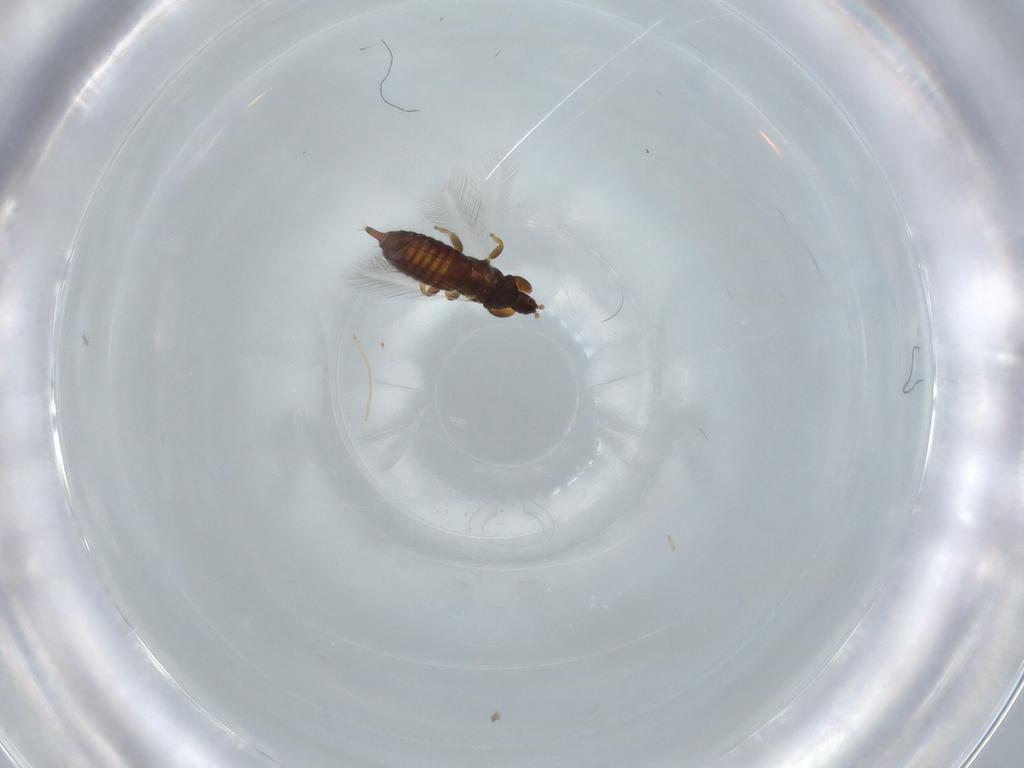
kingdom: Animalia
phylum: Arthropoda
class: Insecta
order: Thysanoptera
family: Phlaeothripidae
